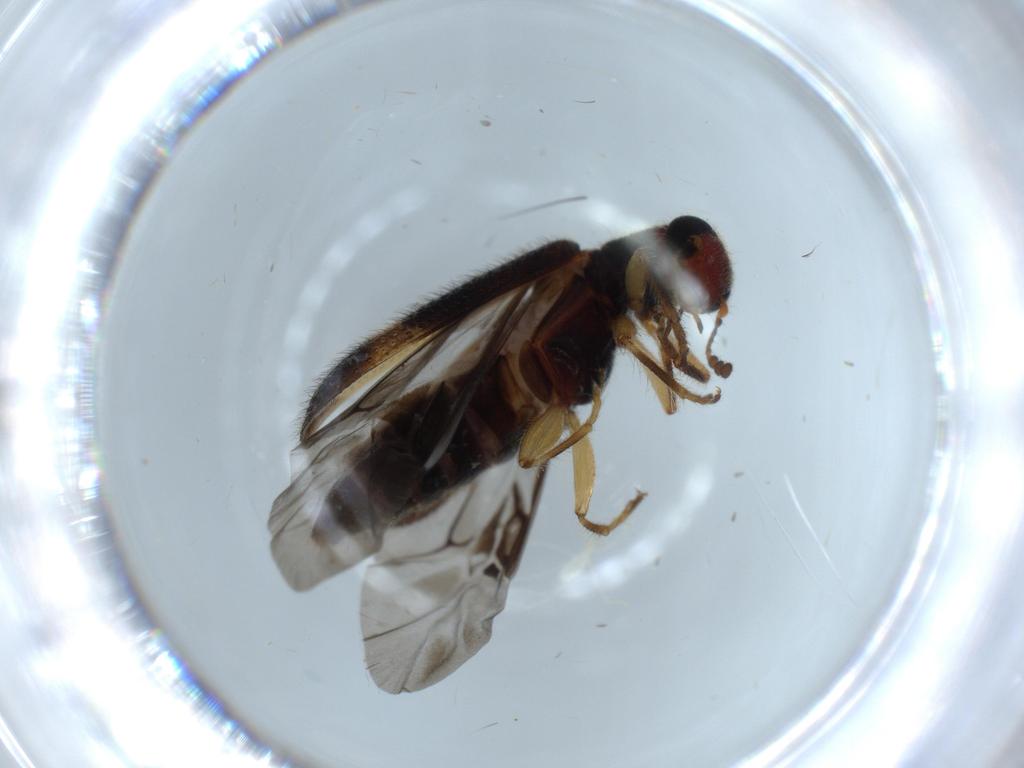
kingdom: Animalia
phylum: Arthropoda
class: Insecta
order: Coleoptera
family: Cleridae
